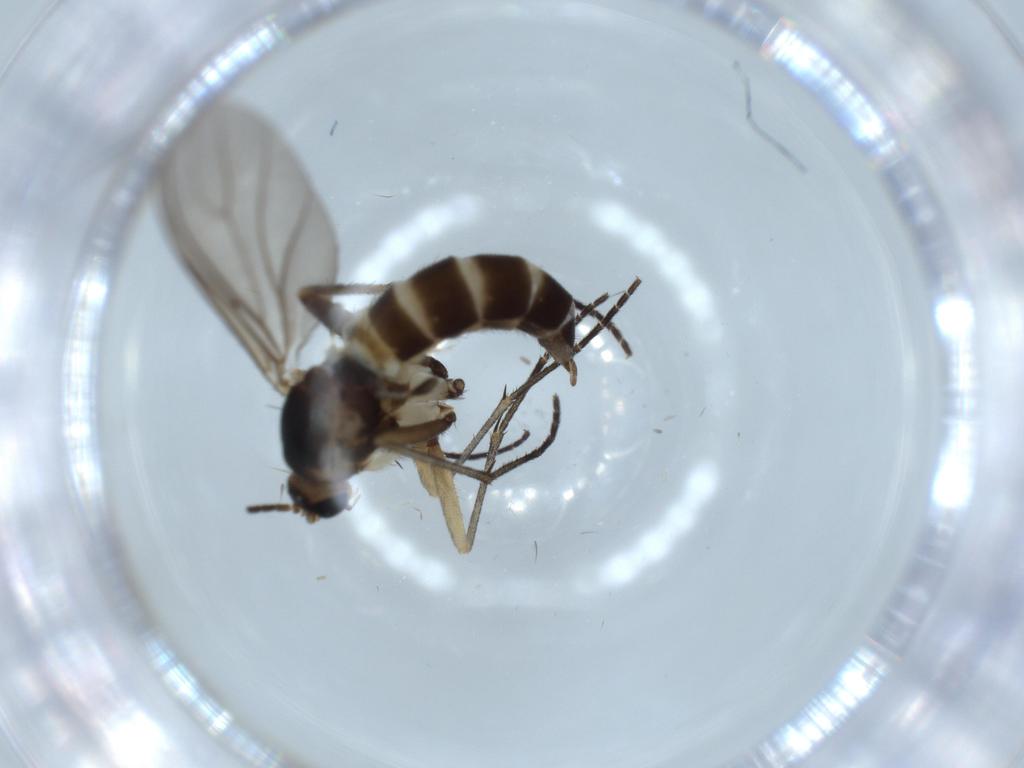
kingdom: Animalia
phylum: Arthropoda
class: Insecta
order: Diptera
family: Sciaridae
